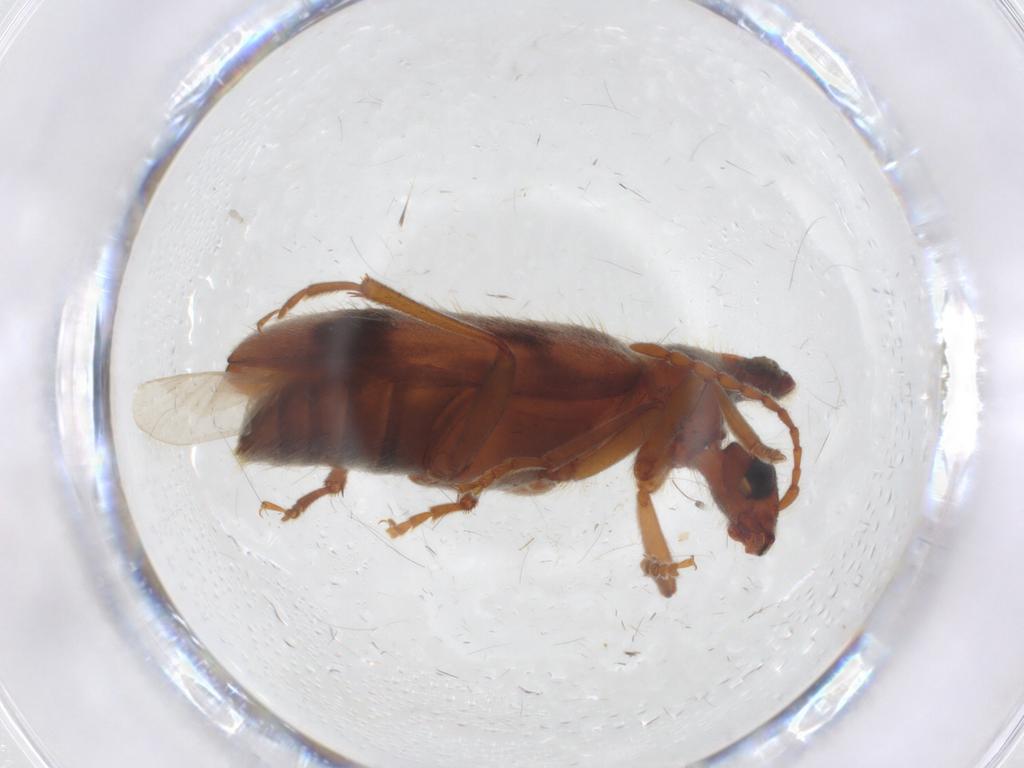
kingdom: Animalia
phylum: Arthropoda
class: Insecta
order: Coleoptera
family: Anthicidae
